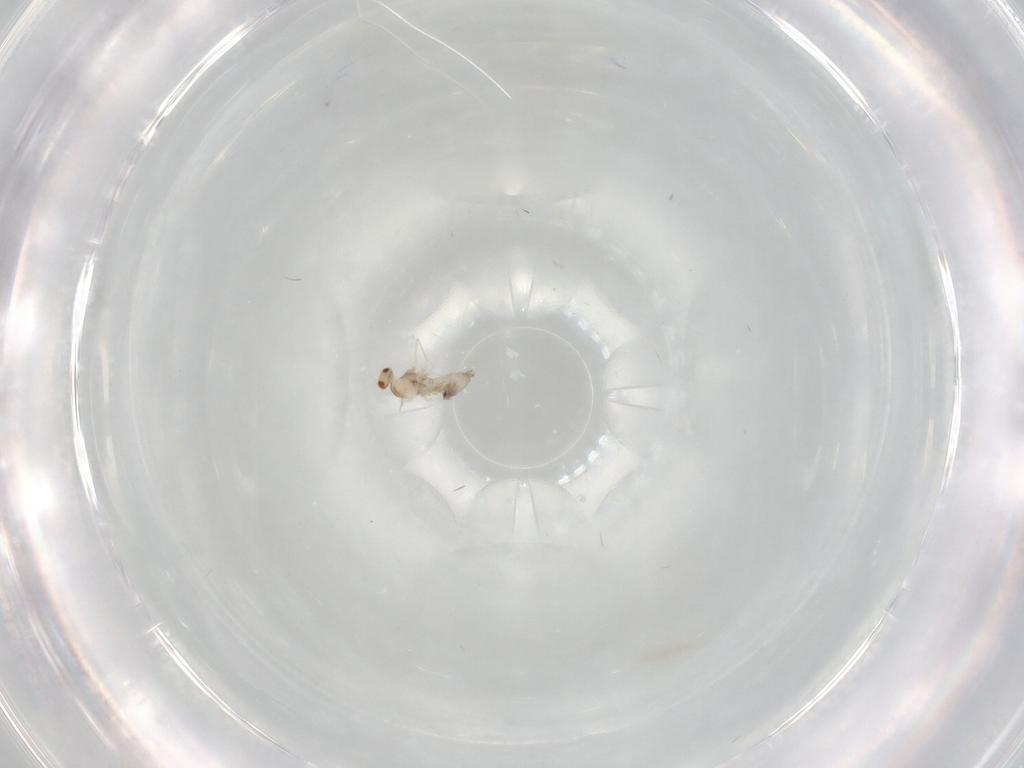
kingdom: Animalia
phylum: Arthropoda
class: Insecta
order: Diptera
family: Cecidomyiidae
